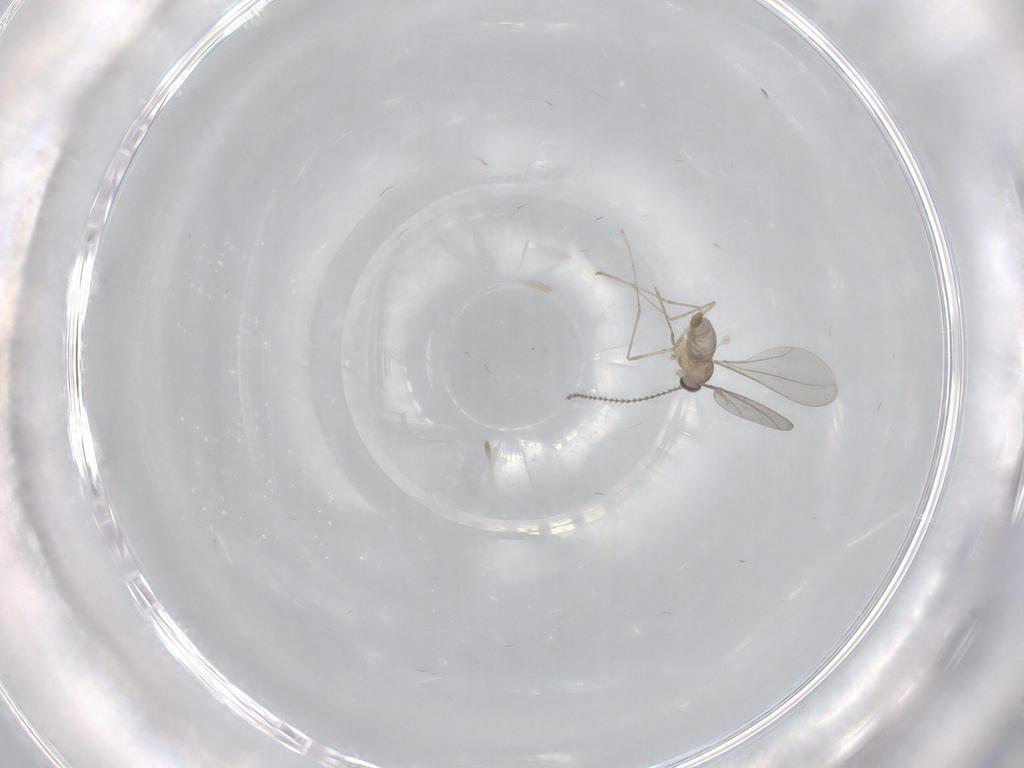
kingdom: Animalia
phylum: Arthropoda
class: Insecta
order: Diptera
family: Cecidomyiidae
